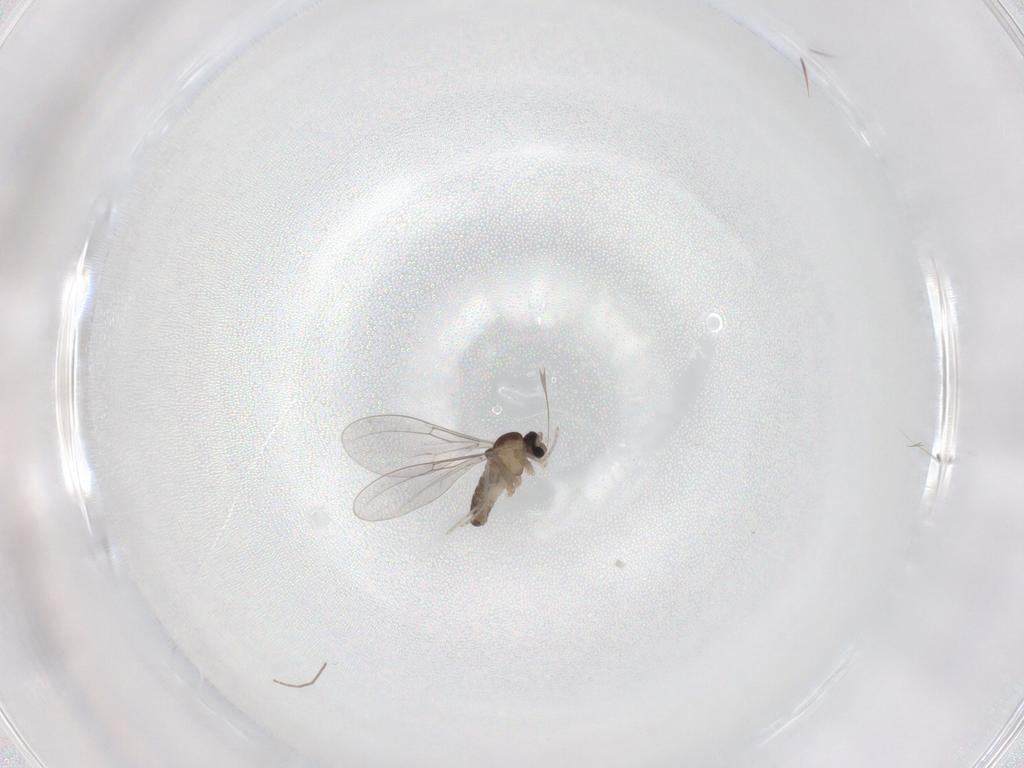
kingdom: Animalia
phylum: Arthropoda
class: Insecta
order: Diptera
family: Cecidomyiidae
